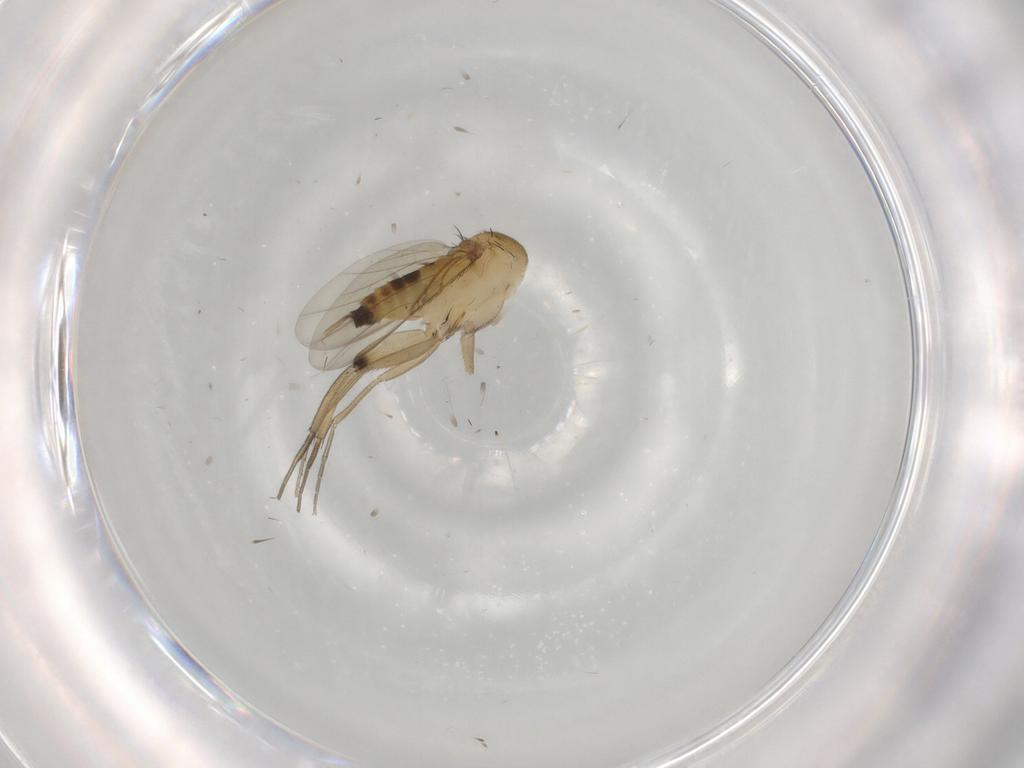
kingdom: Animalia
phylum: Arthropoda
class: Insecta
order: Diptera
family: Phoridae
